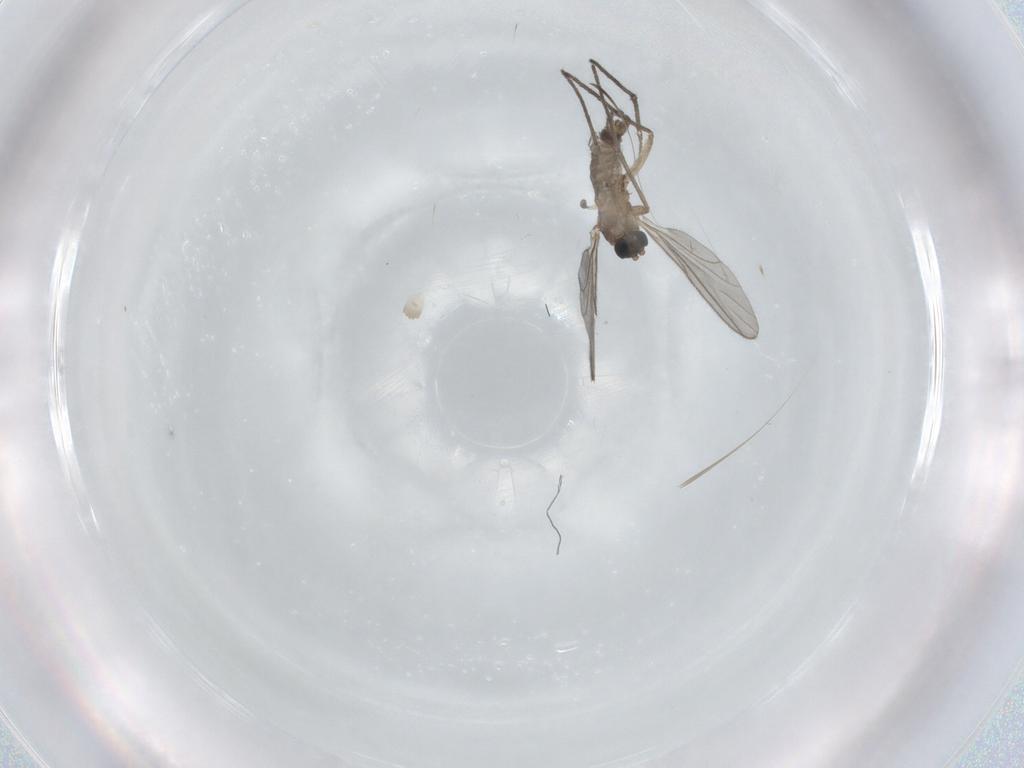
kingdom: Animalia
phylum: Arthropoda
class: Insecta
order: Diptera
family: Sciaridae
